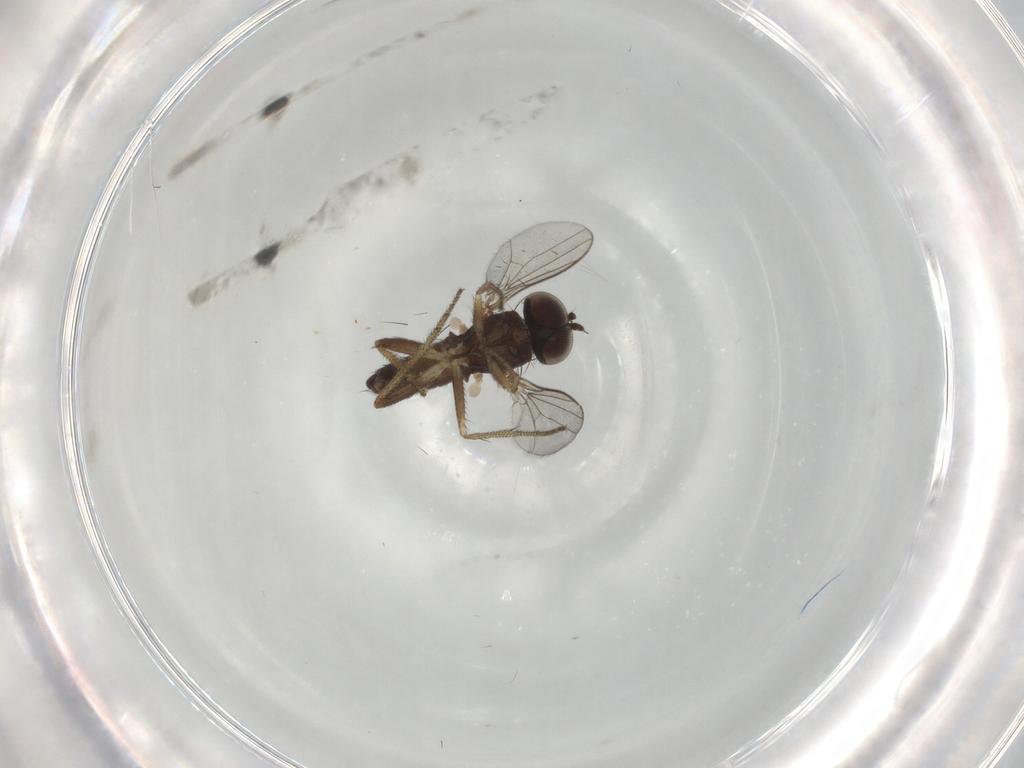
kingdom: Animalia
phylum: Arthropoda
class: Insecta
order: Diptera
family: Dolichopodidae
